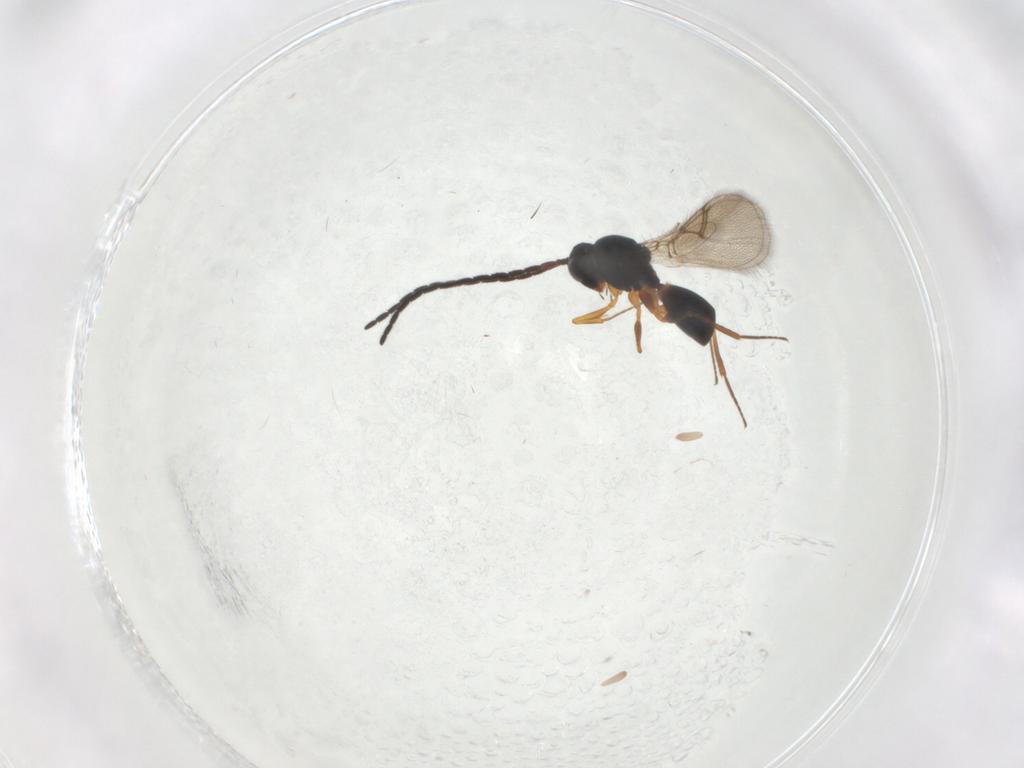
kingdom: Animalia
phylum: Arthropoda
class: Insecta
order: Hymenoptera
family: Figitidae
